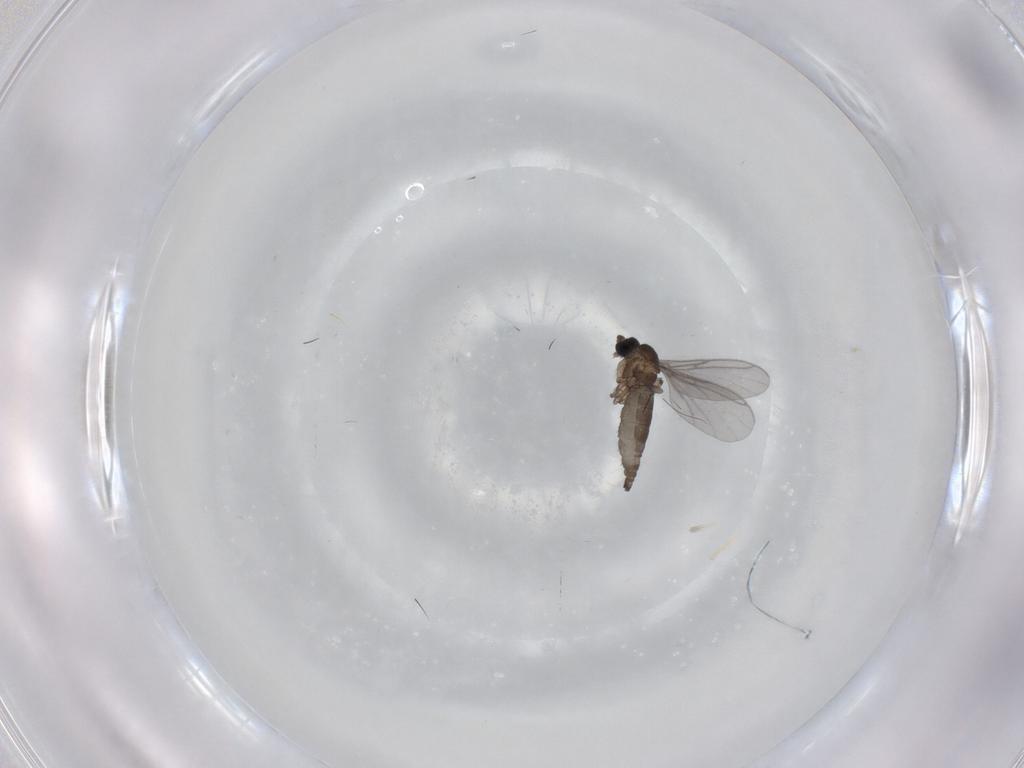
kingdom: Animalia
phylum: Arthropoda
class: Insecta
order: Diptera
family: Sciaridae
